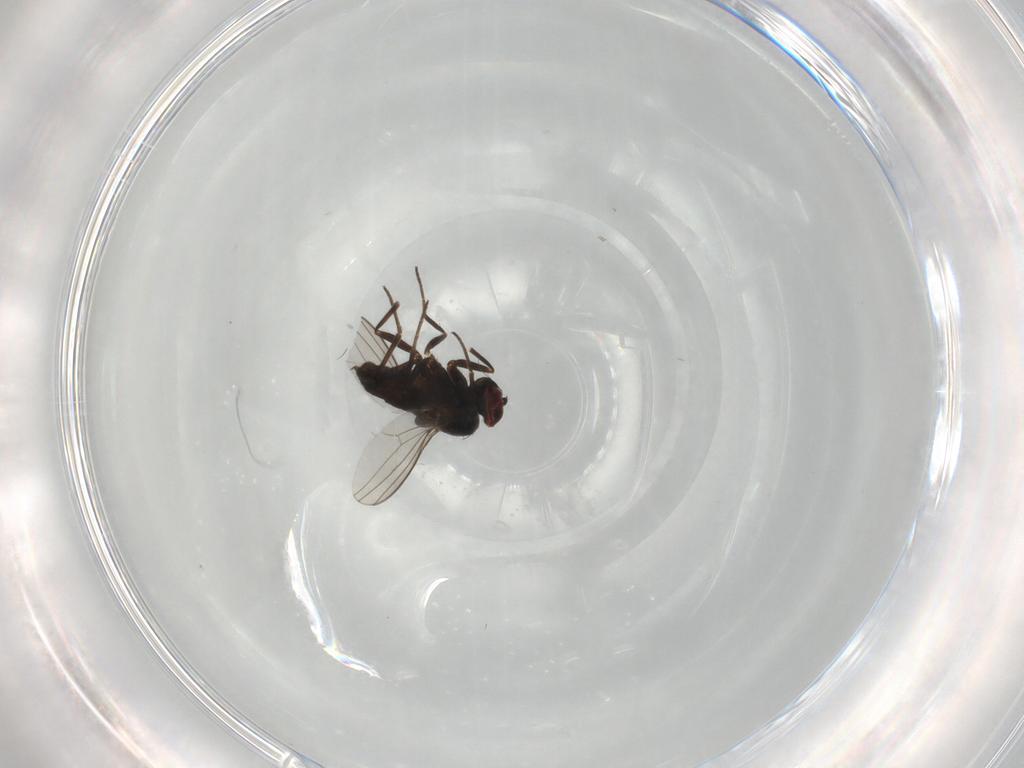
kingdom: Animalia
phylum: Arthropoda
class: Insecta
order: Diptera
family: Dolichopodidae
